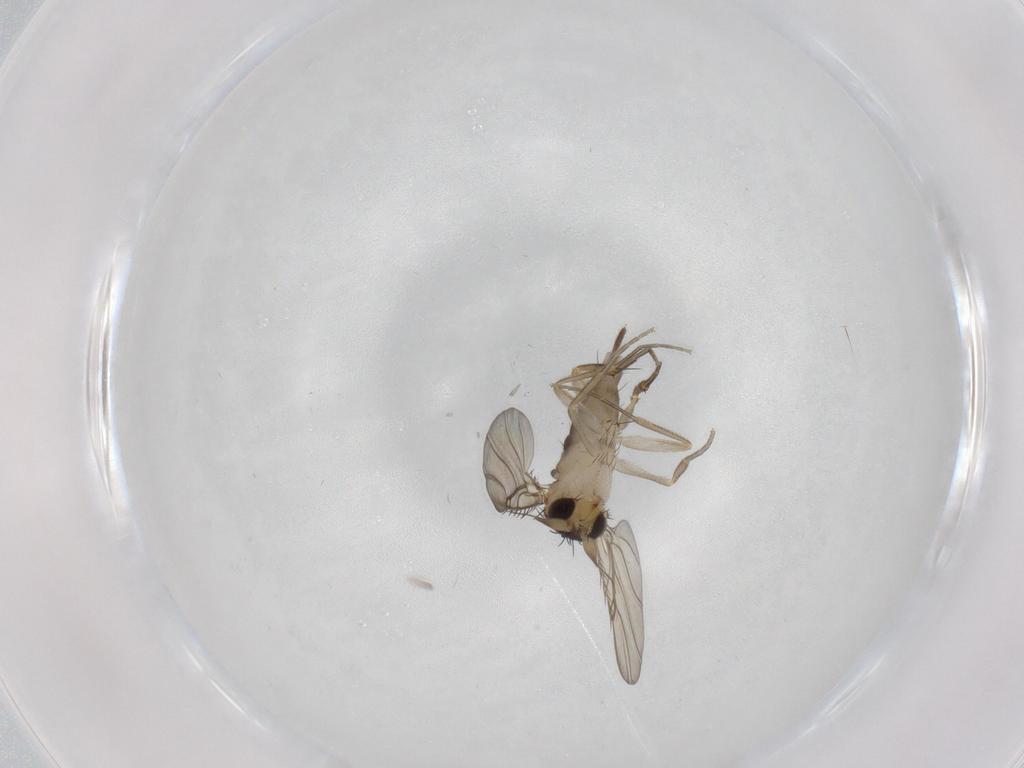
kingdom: Animalia
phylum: Arthropoda
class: Insecta
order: Diptera
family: Phoridae
